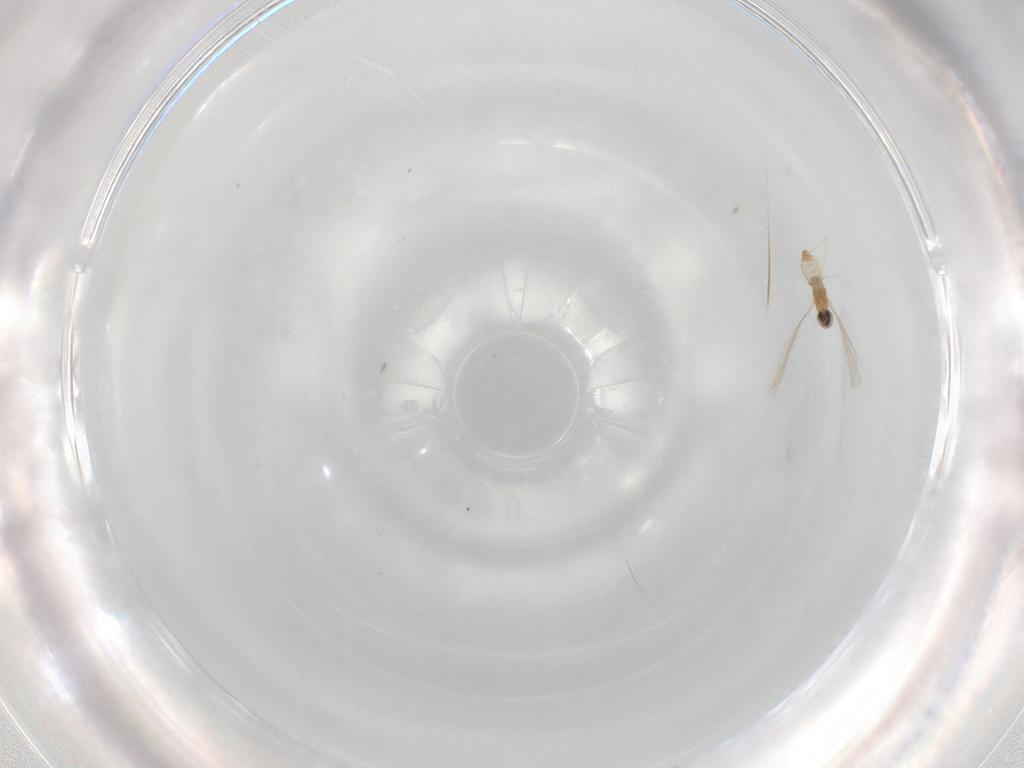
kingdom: Animalia
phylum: Arthropoda
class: Insecta
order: Diptera
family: Cecidomyiidae
